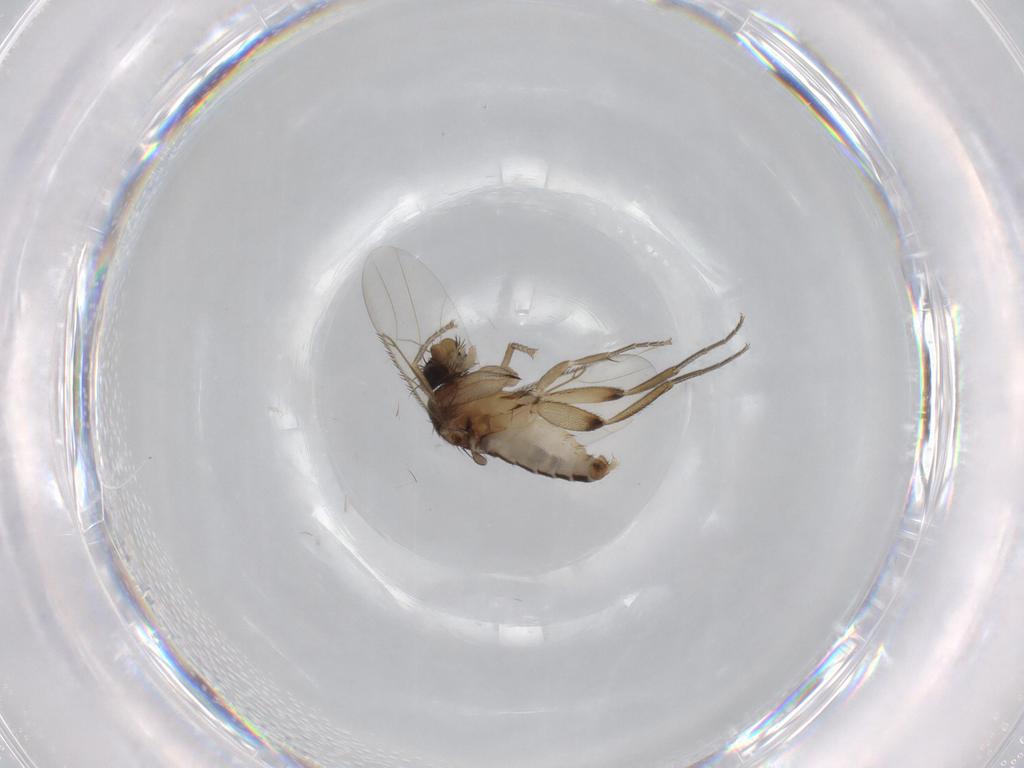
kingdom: Animalia
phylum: Arthropoda
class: Insecta
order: Diptera
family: Phoridae
